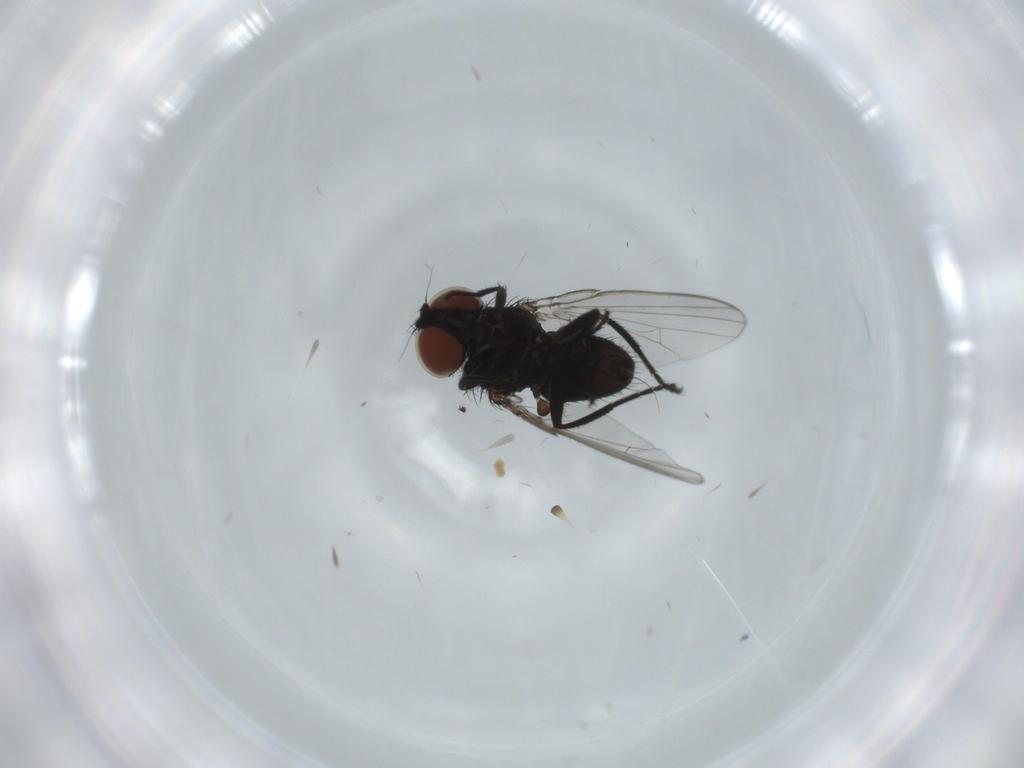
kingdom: Animalia
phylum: Arthropoda
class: Insecta
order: Diptera
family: Milichiidae
